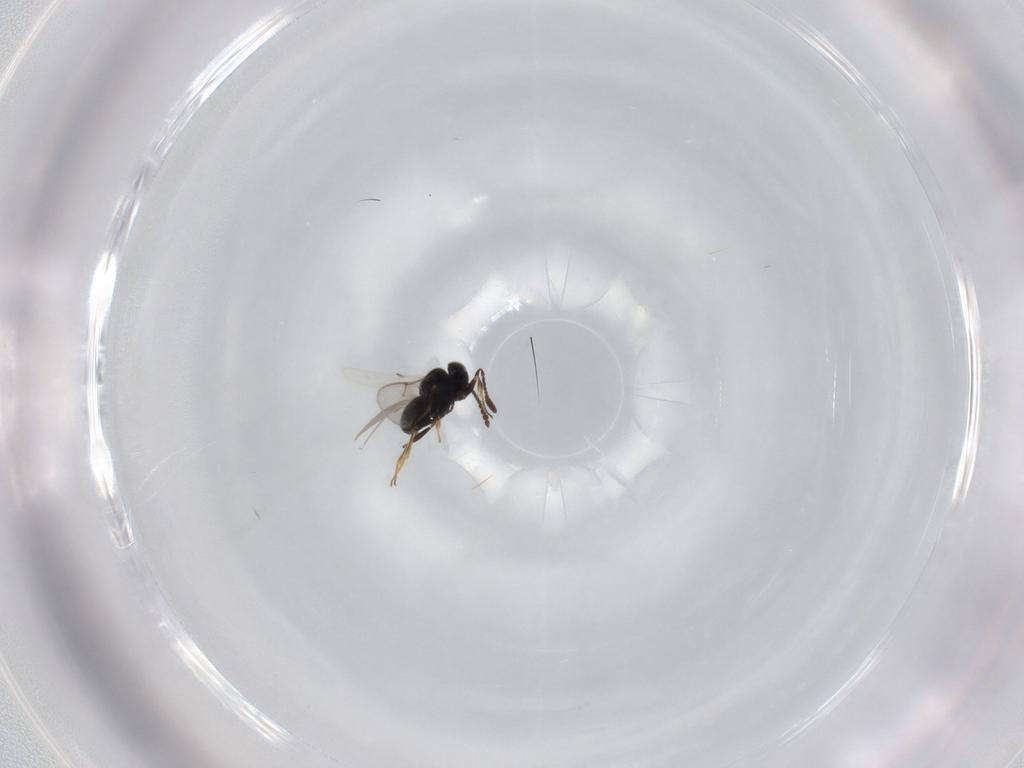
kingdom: Animalia
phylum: Arthropoda
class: Insecta
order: Hymenoptera
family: Scelionidae
